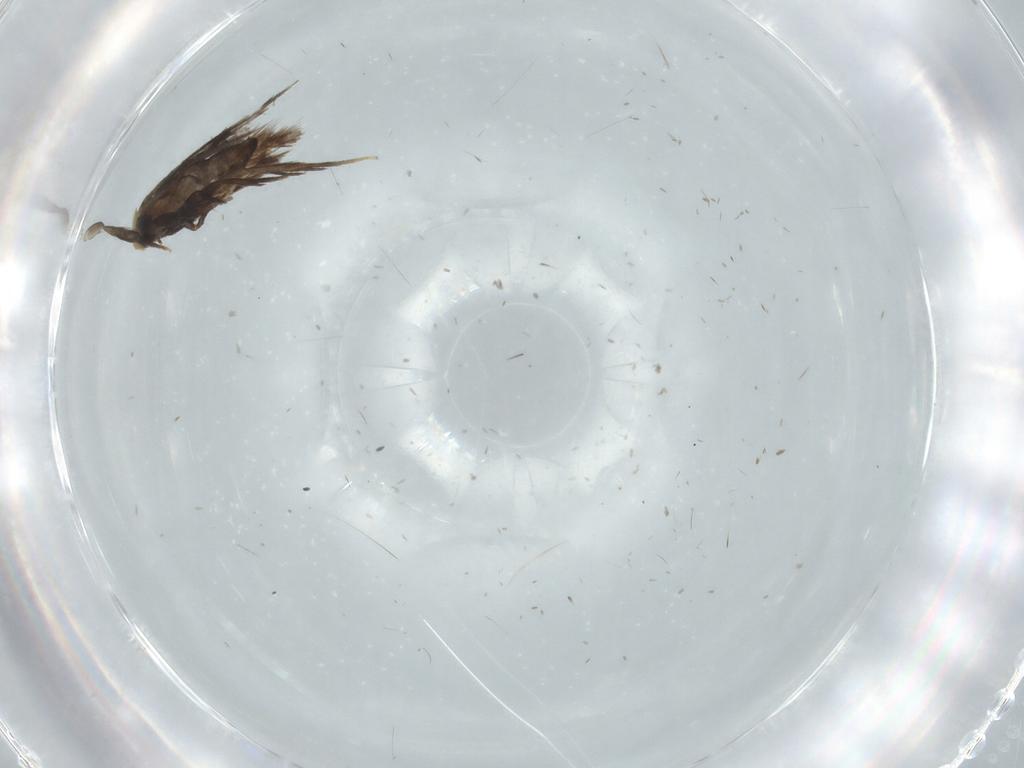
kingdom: Animalia
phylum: Arthropoda
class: Insecta
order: Lepidoptera
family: Nepticulidae
